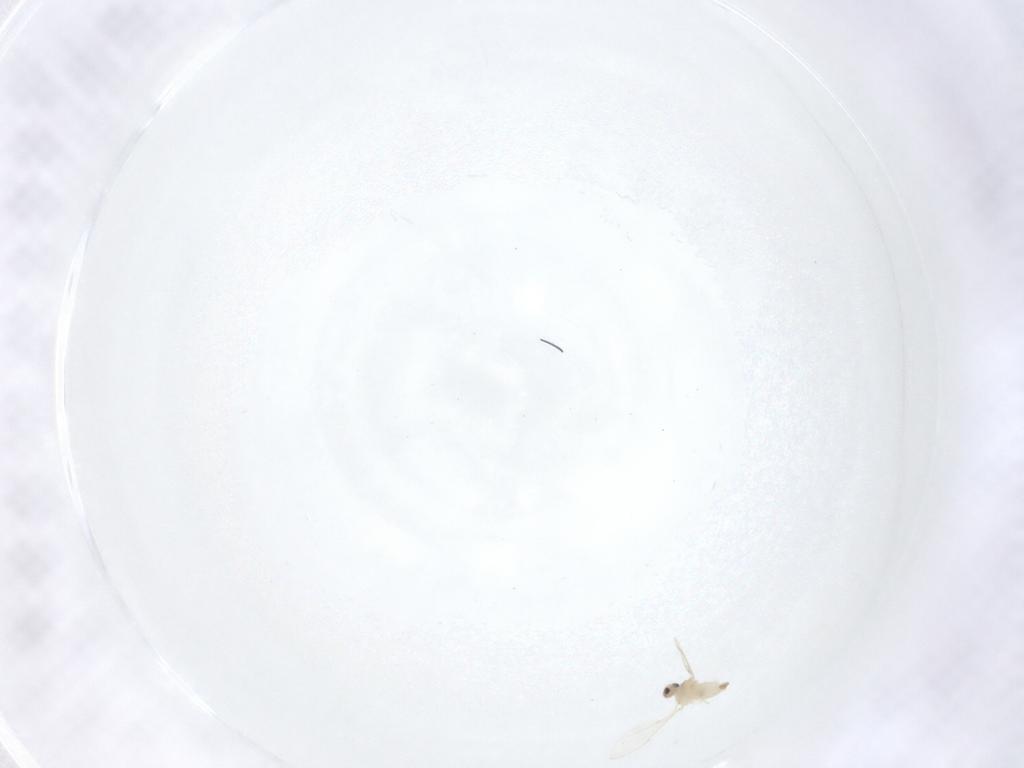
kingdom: Animalia
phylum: Arthropoda
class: Insecta
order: Diptera
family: Cecidomyiidae
